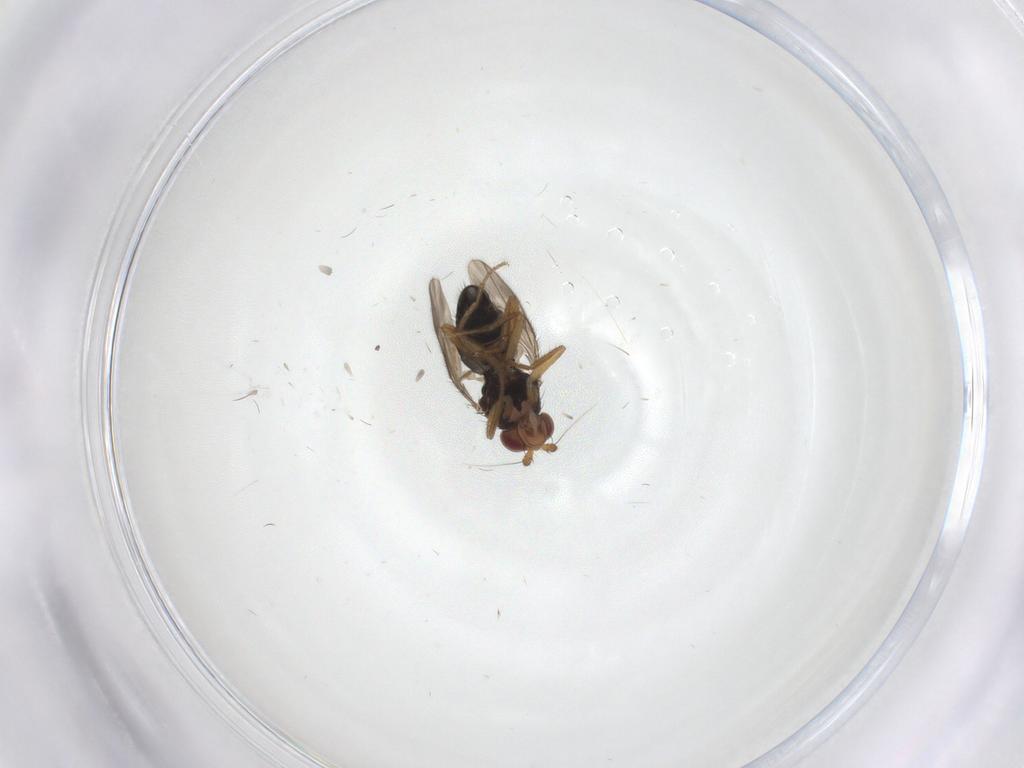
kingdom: Animalia
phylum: Arthropoda
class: Insecta
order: Diptera
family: Sphaeroceridae
